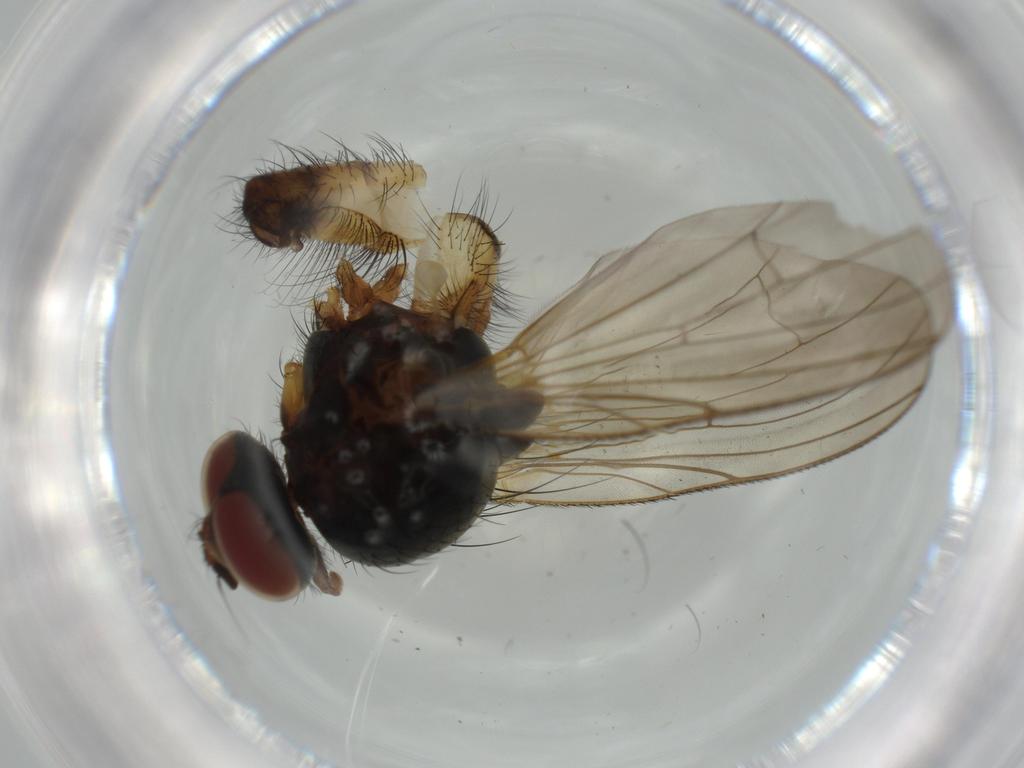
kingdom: Animalia
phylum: Arthropoda
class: Insecta
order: Diptera
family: Anthomyiidae
